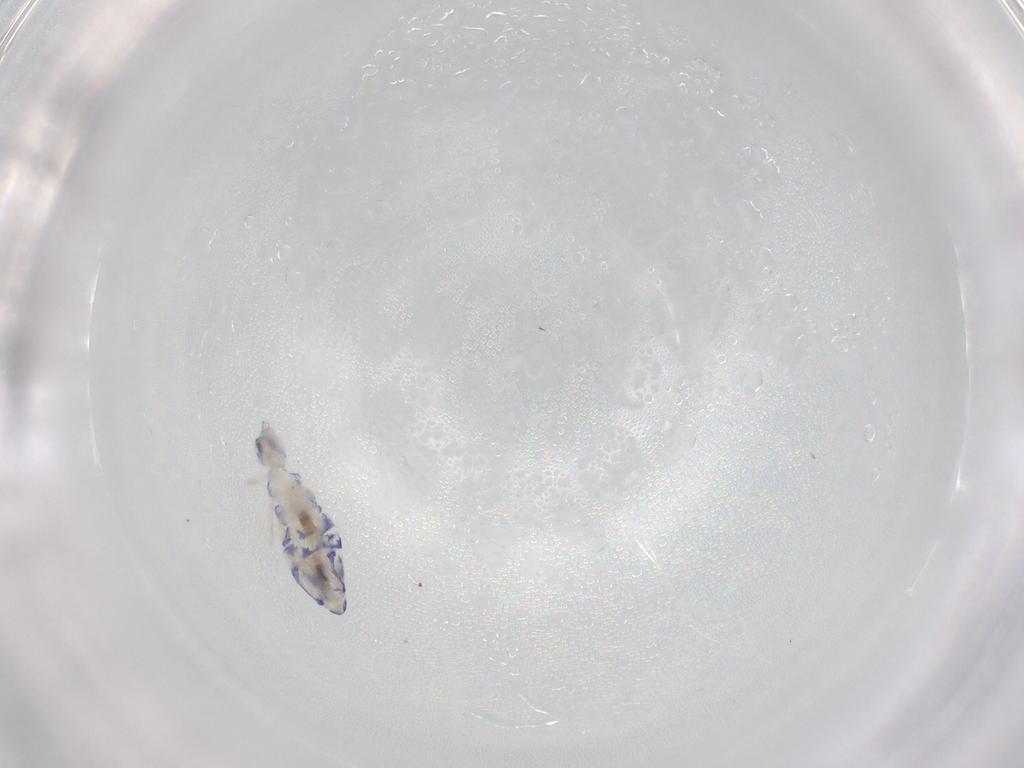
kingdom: Animalia
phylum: Arthropoda
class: Collembola
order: Entomobryomorpha
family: Entomobryidae
